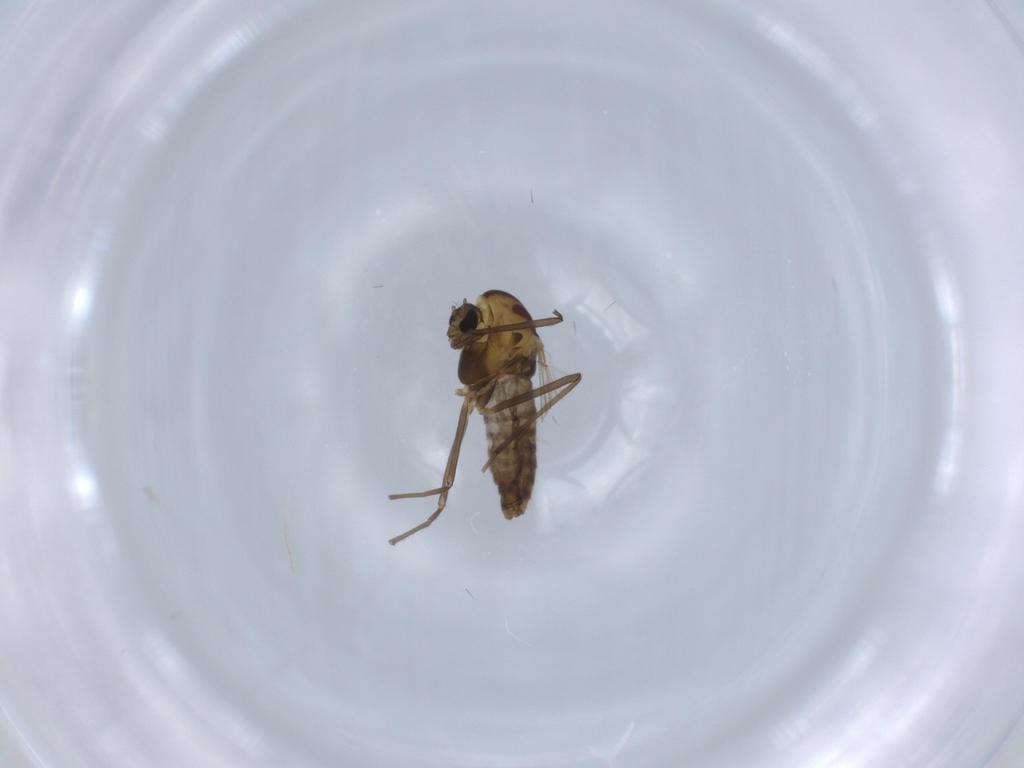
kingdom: Animalia
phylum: Arthropoda
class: Insecta
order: Diptera
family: Chironomidae
